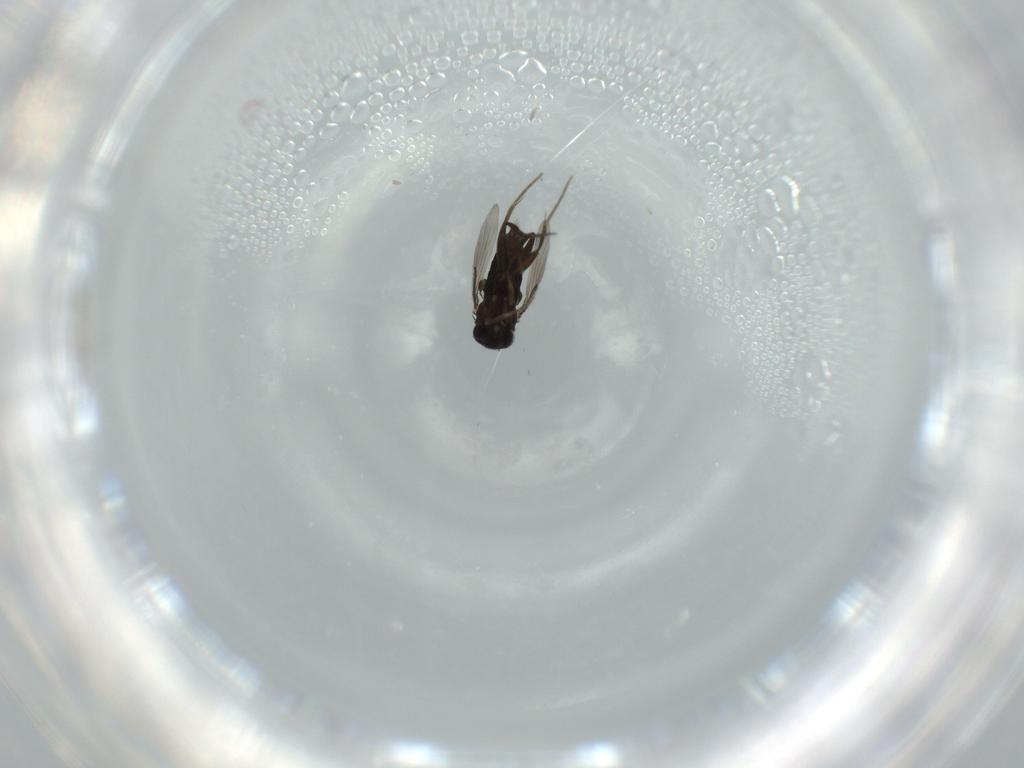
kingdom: Animalia
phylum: Arthropoda
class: Insecta
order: Diptera
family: Phoridae
